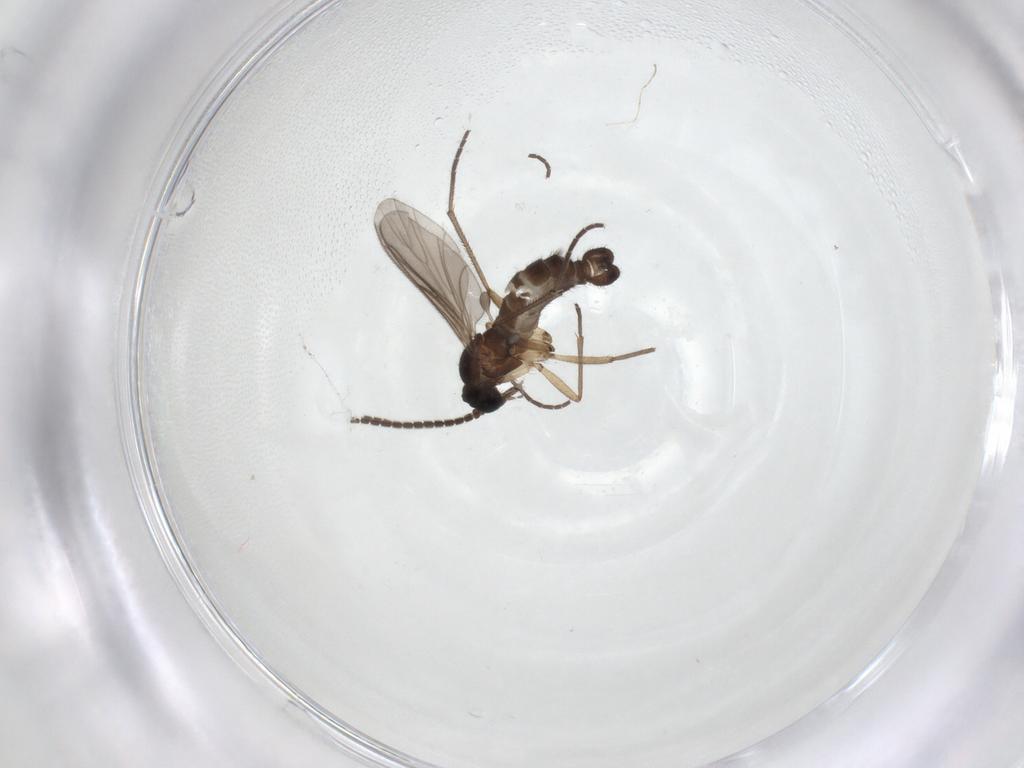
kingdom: Animalia
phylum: Arthropoda
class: Insecta
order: Diptera
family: Sciaridae
